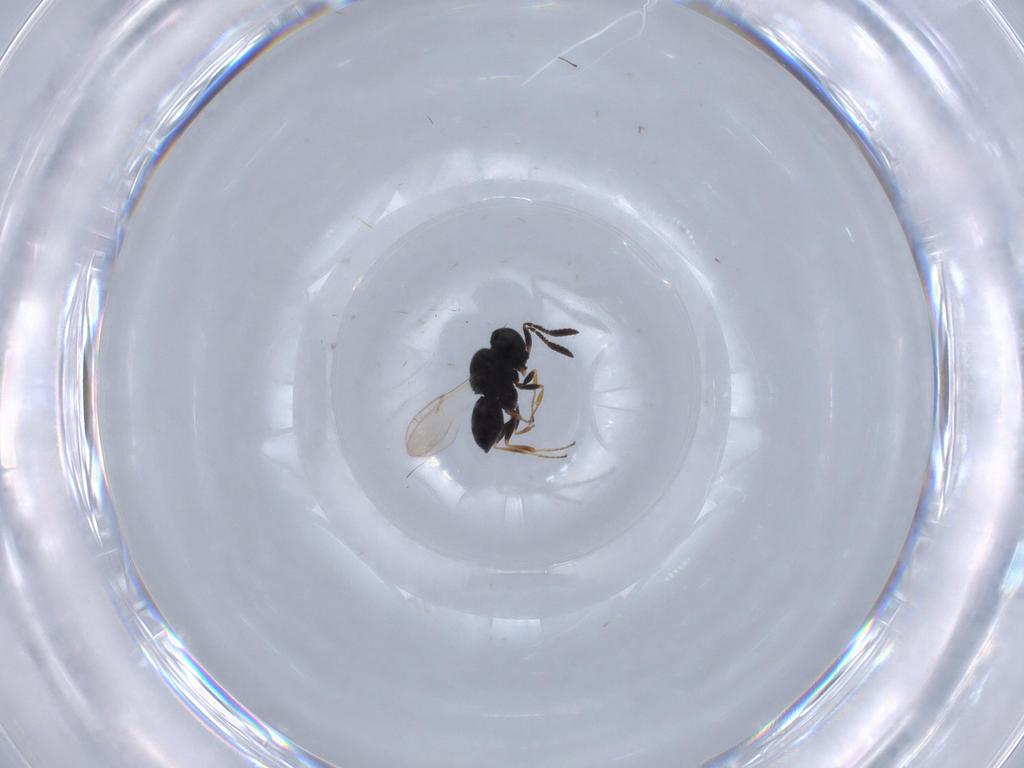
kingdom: Animalia
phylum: Arthropoda
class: Insecta
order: Hymenoptera
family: Scelionidae
